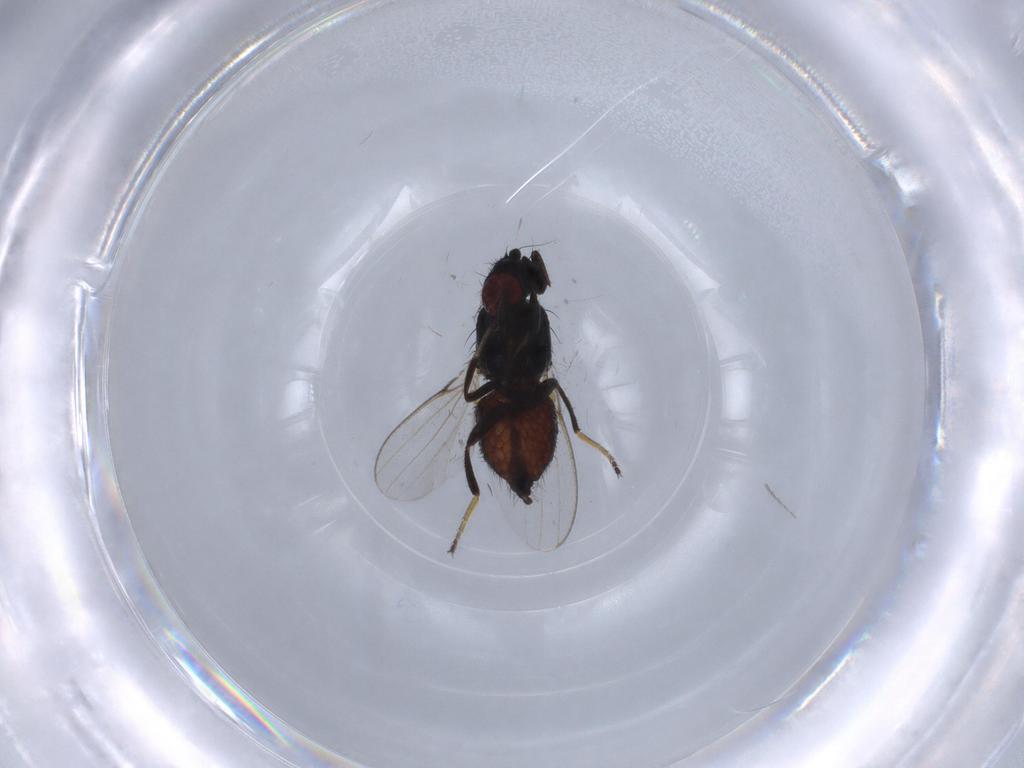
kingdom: Animalia
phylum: Arthropoda
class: Insecta
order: Diptera
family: Milichiidae
